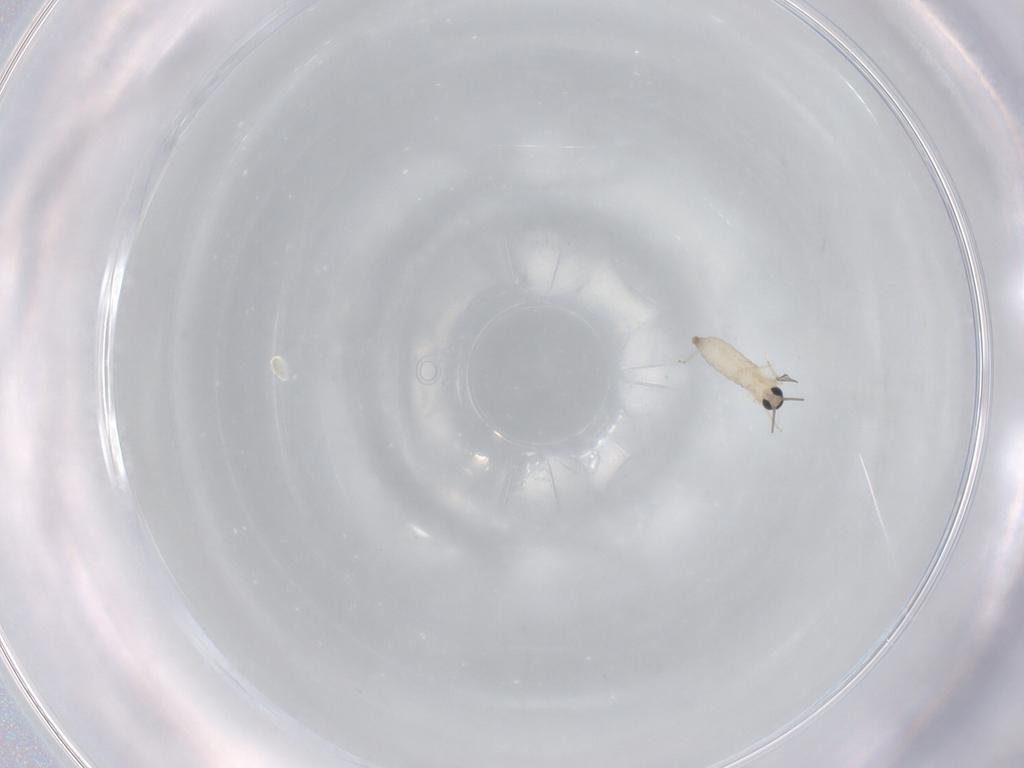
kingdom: Animalia
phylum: Arthropoda
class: Insecta
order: Diptera
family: Cecidomyiidae
